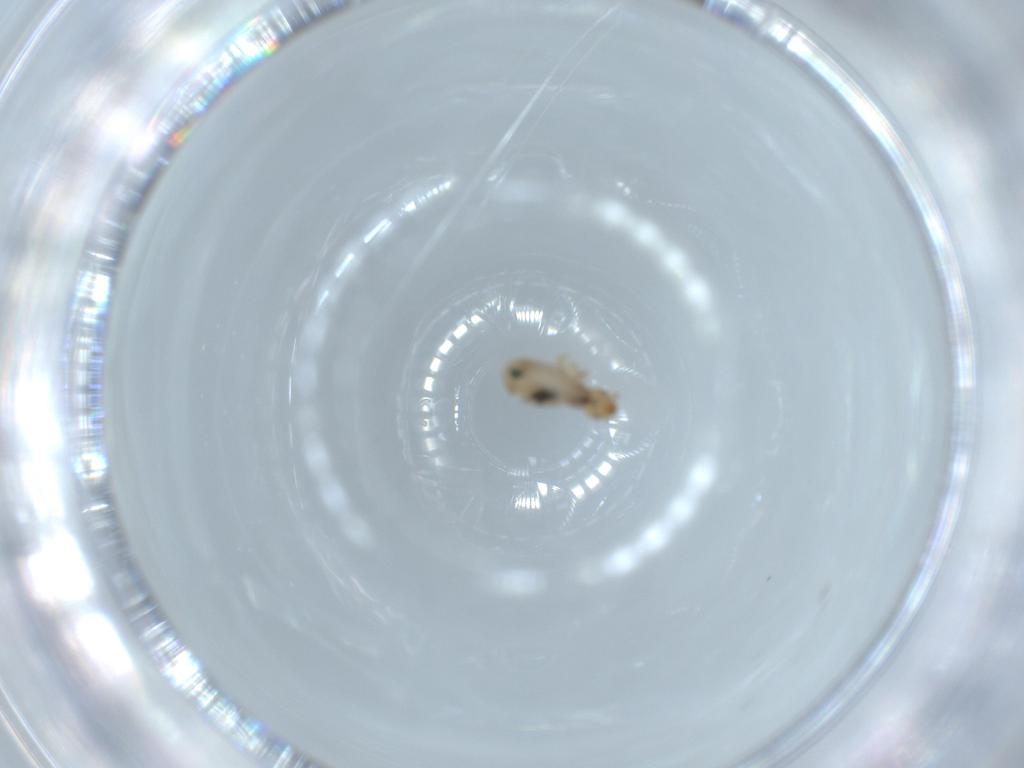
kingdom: Animalia
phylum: Arthropoda
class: Insecta
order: Psocodea
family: Liposcelididae
